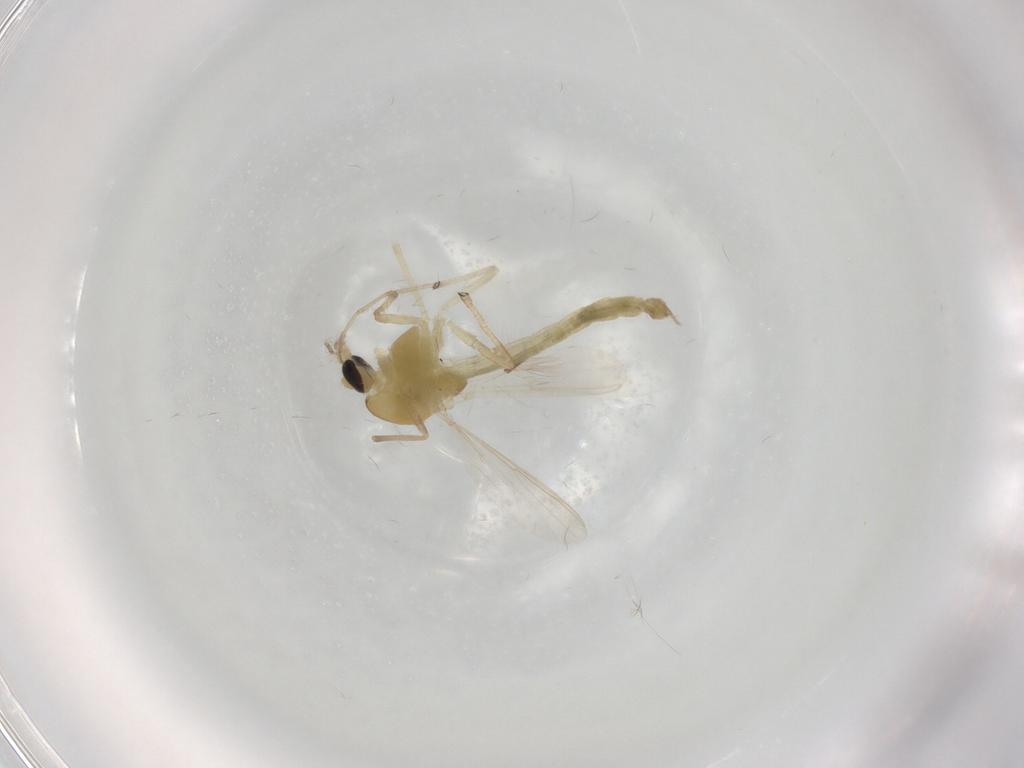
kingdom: Animalia
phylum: Arthropoda
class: Insecta
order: Diptera
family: Chironomidae
